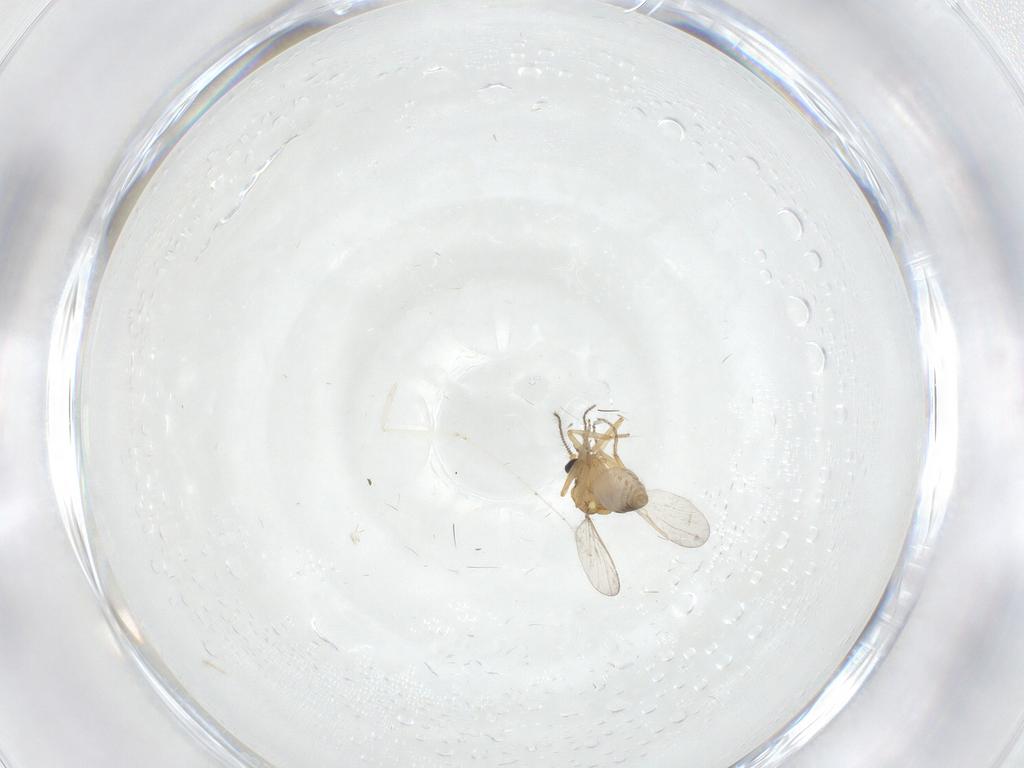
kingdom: Animalia
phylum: Arthropoda
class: Insecta
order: Diptera
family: Ceratopogonidae
